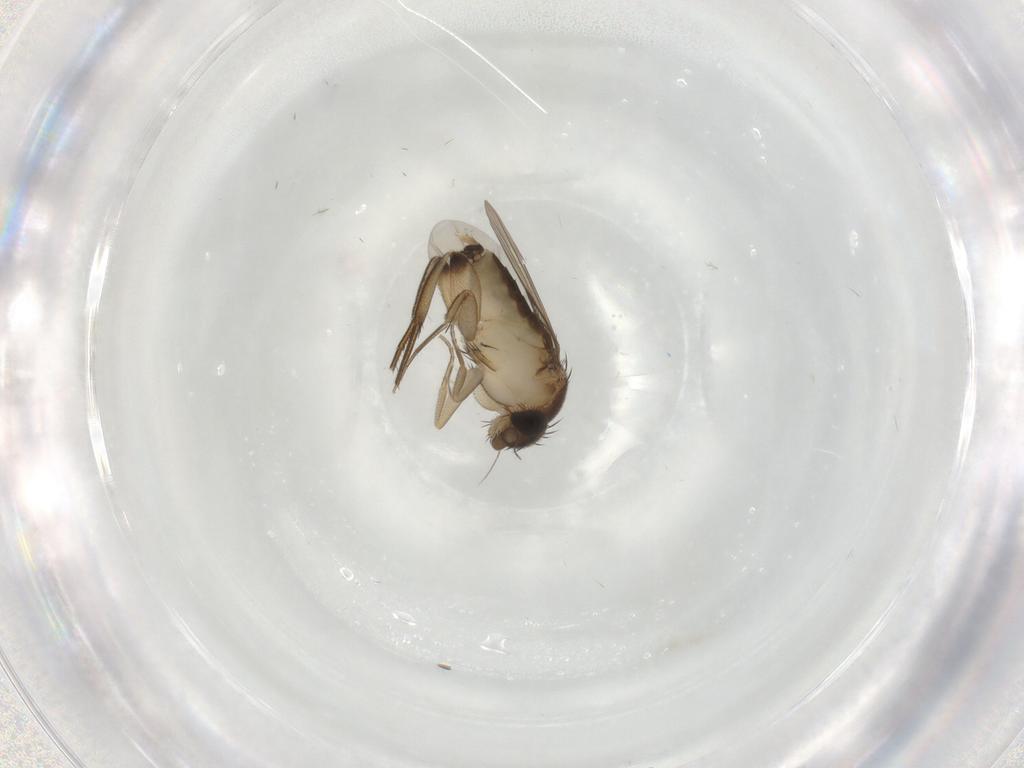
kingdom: Animalia
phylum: Arthropoda
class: Insecta
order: Diptera
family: Phoridae
